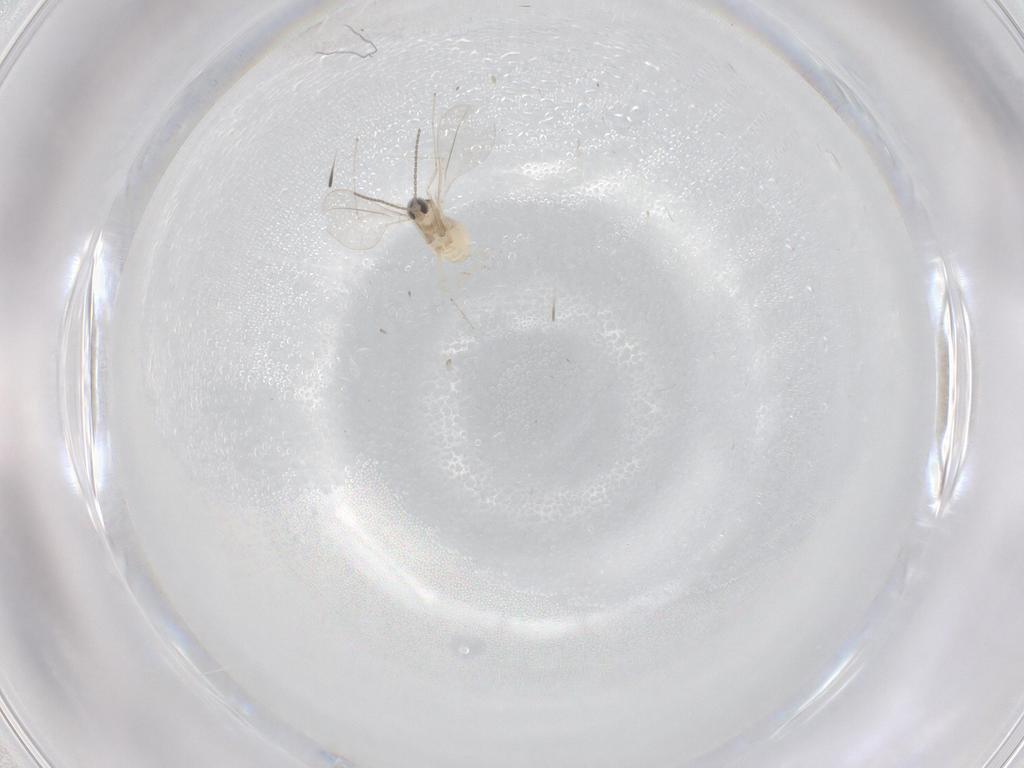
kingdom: Animalia
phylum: Arthropoda
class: Insecta
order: Diptera
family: Cecidomyiidae
